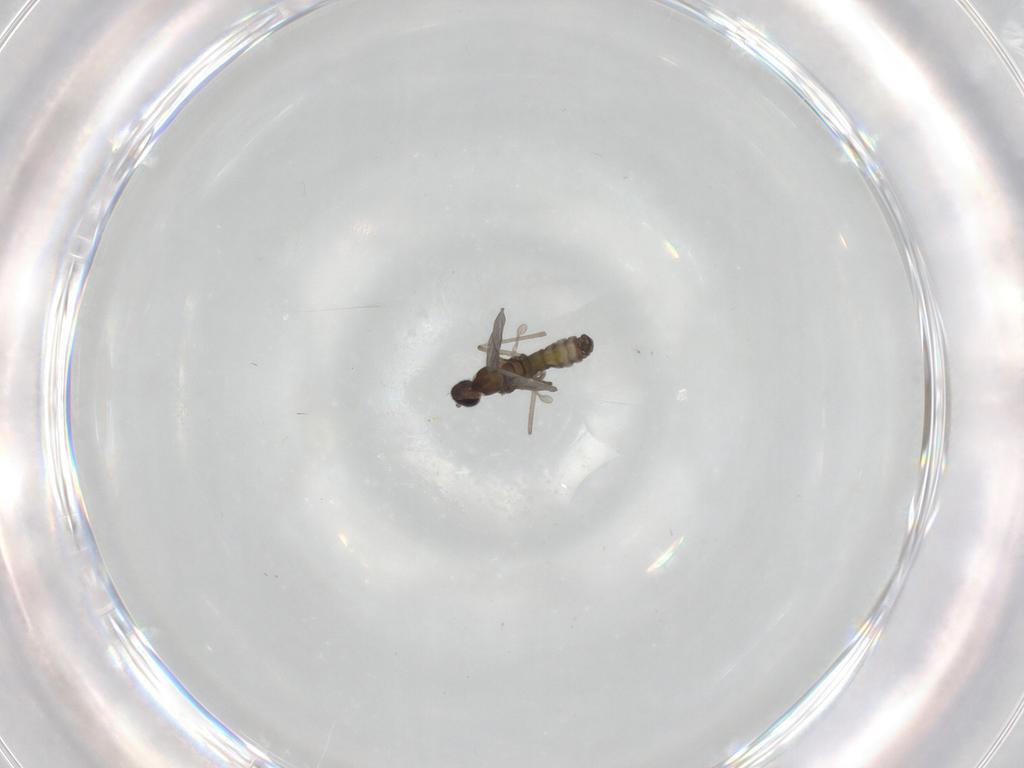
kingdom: Animalia
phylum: Arthropoda
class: Insecta
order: Diptera
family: Cecidomyiidae
